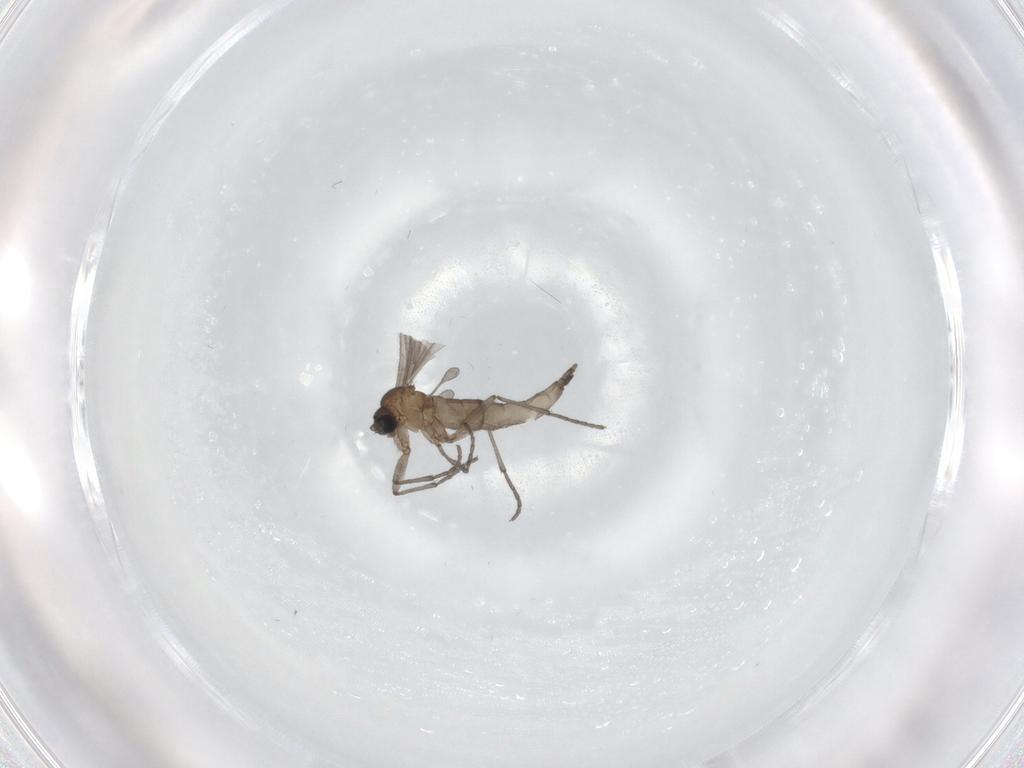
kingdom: Animalia
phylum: Arthropoda
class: Insecta
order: Diptera
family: Sciaridae
